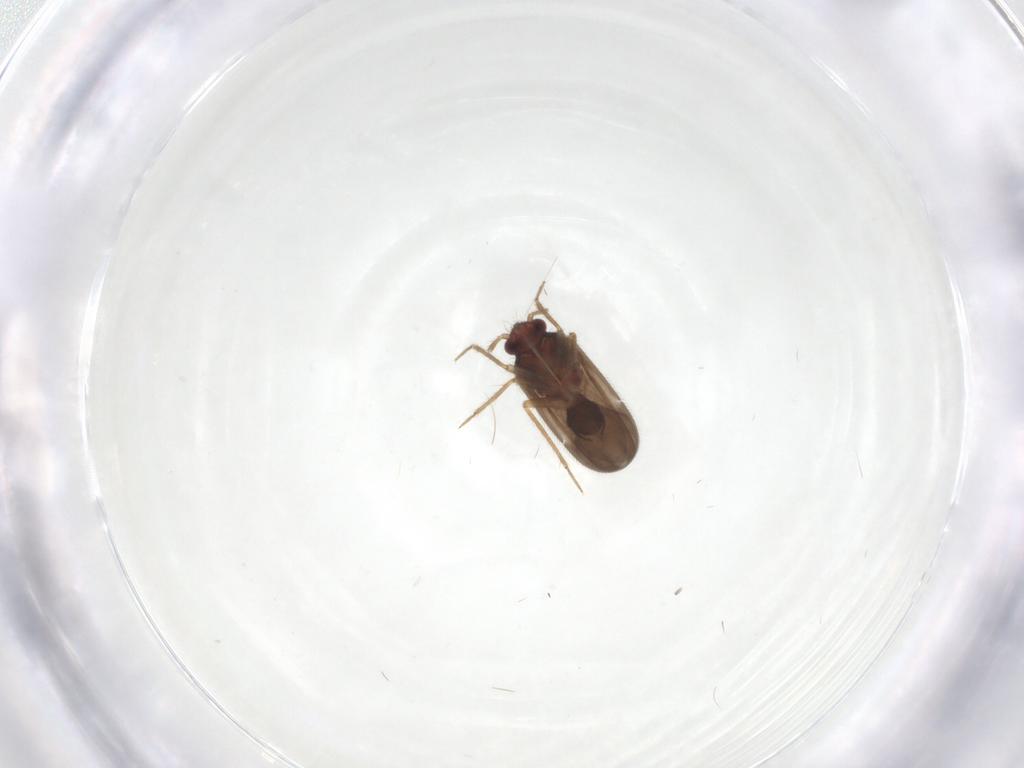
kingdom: Animalia
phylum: Arthropoda
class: Insecta
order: Hemiptera
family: Ceratocombidae
